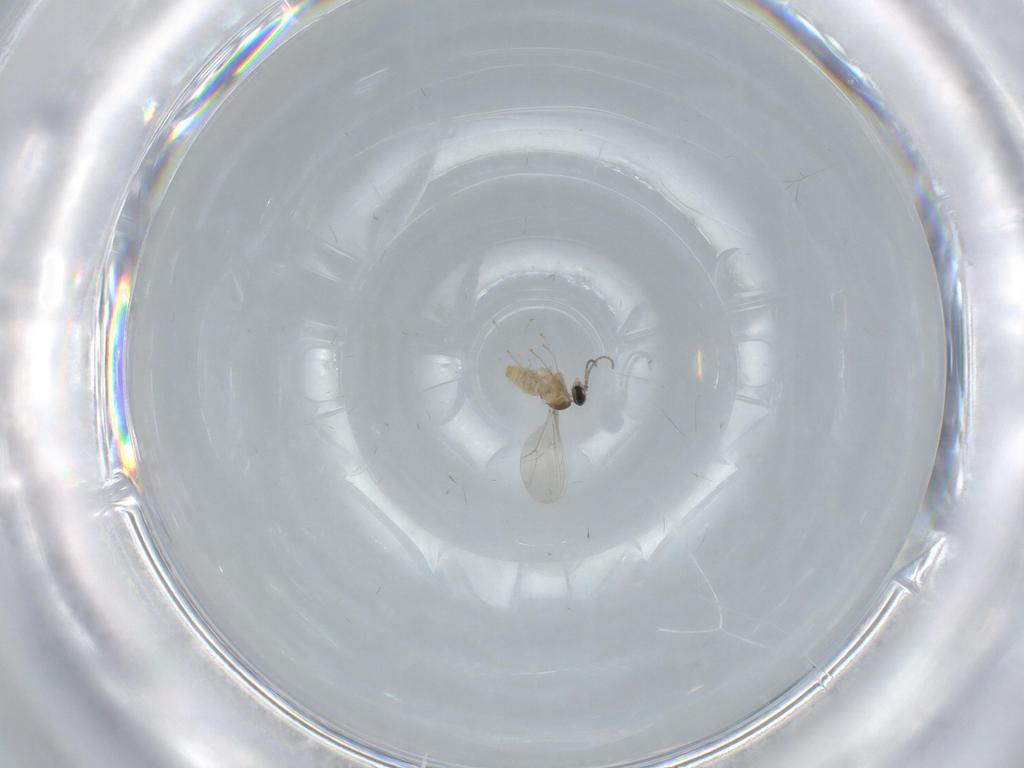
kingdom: Animalia
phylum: Arthropoda
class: Insecta
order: Diptera
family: Cecidomyiidae
